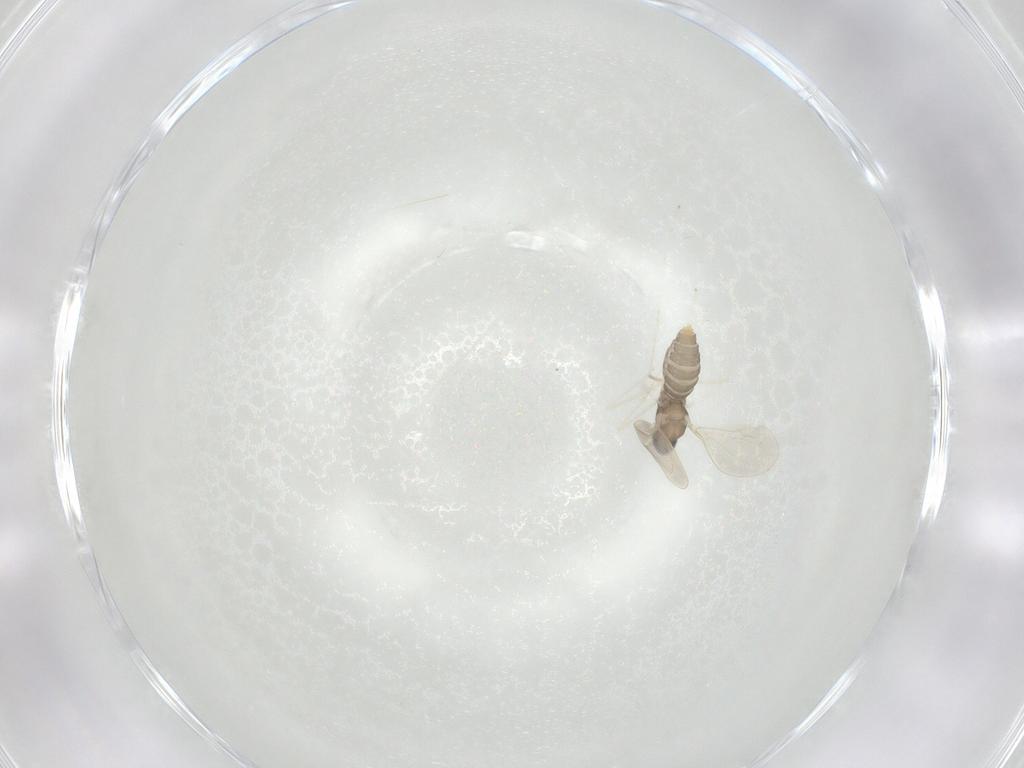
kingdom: Animalia
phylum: Arthropoda
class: Insecta
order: Diptera
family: Cecidomyiidae
